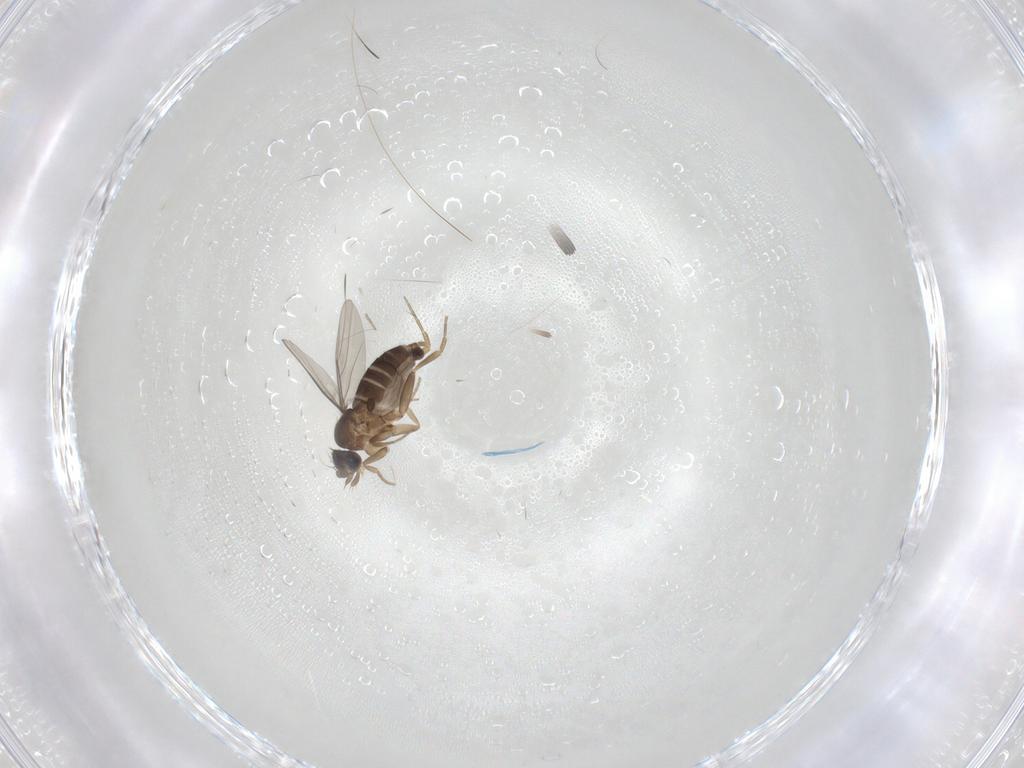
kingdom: Animalia
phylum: Arthropoda
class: Insecta
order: Diptera
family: Phoridae
